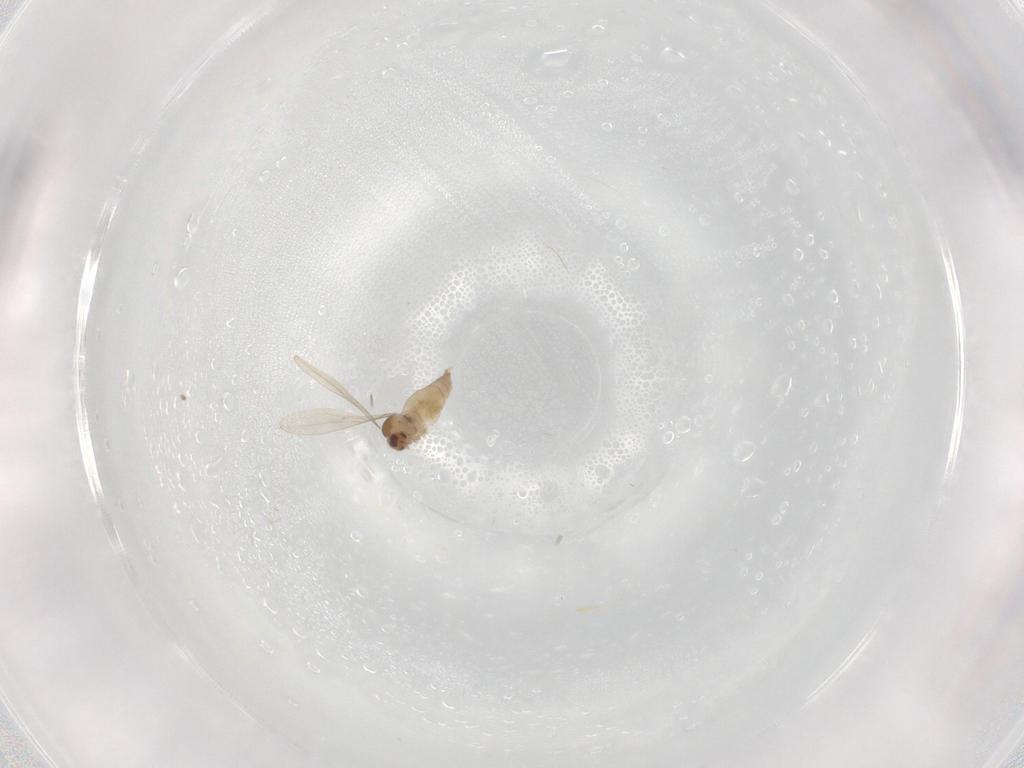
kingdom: Animalia
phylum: Arthropoda
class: Insecta
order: Diptera
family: Cecidomyiidae
